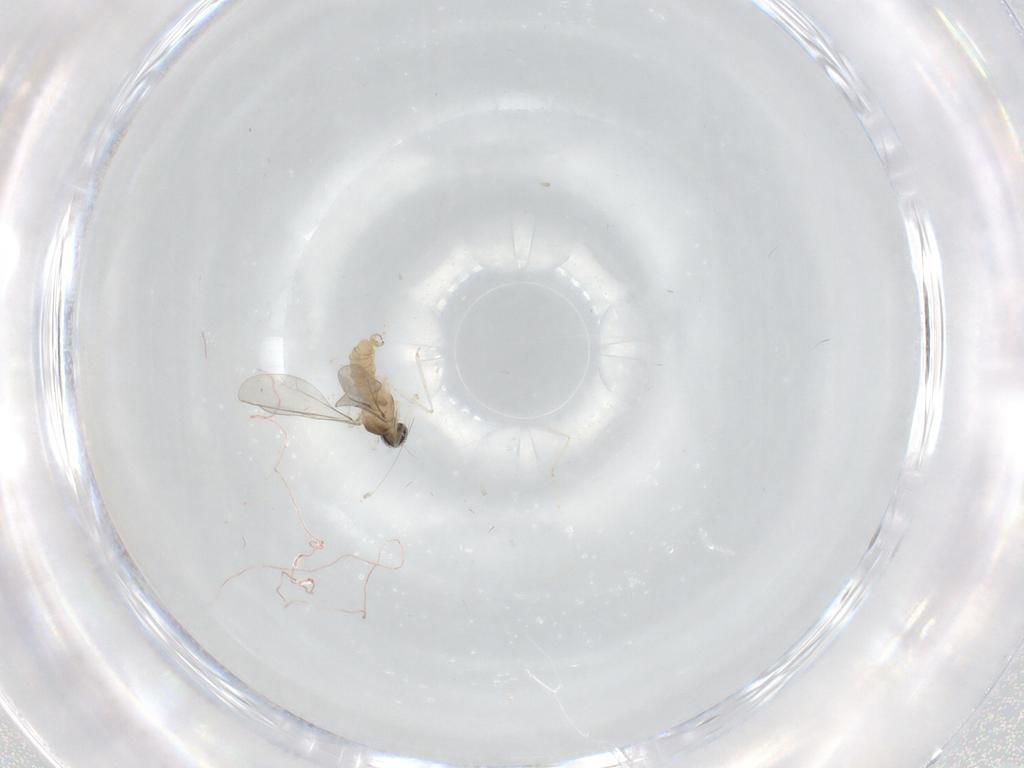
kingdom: Animalia
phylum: Arthropoda
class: Insecta
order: Diptera
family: Cecidomyiidae
